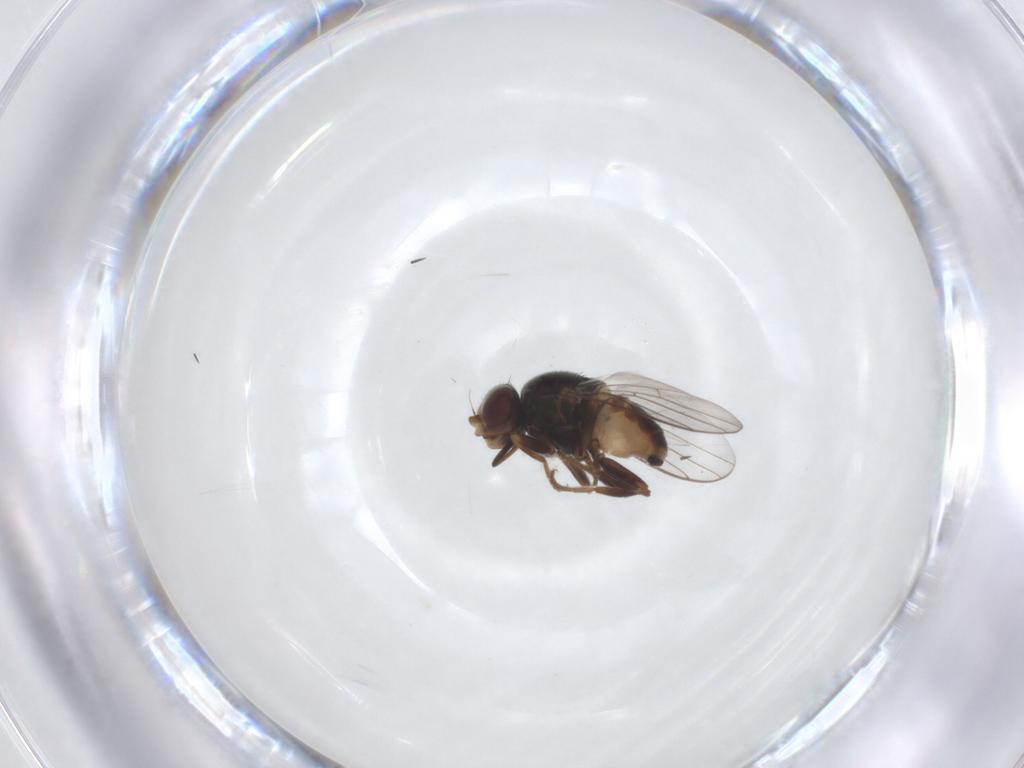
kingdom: Animalia
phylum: Arthropoda
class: Insecta
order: Diptera
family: Chloropidae
